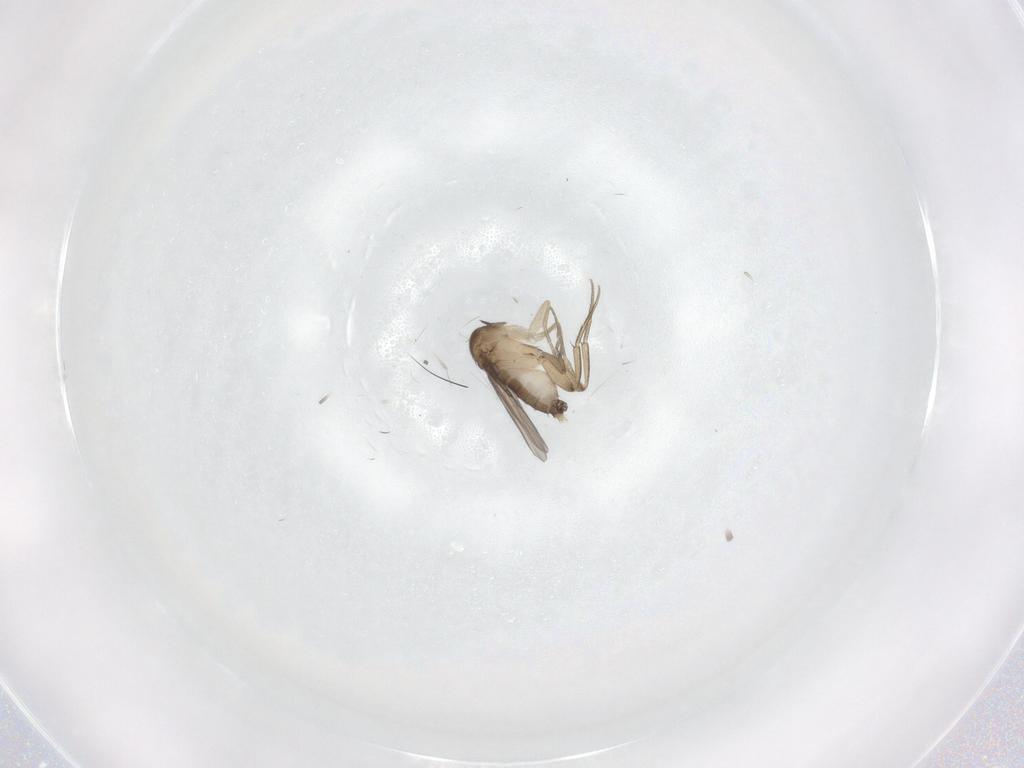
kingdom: Animalia
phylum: Arthropoda
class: Insecta
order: Diptera
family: Phoridae
